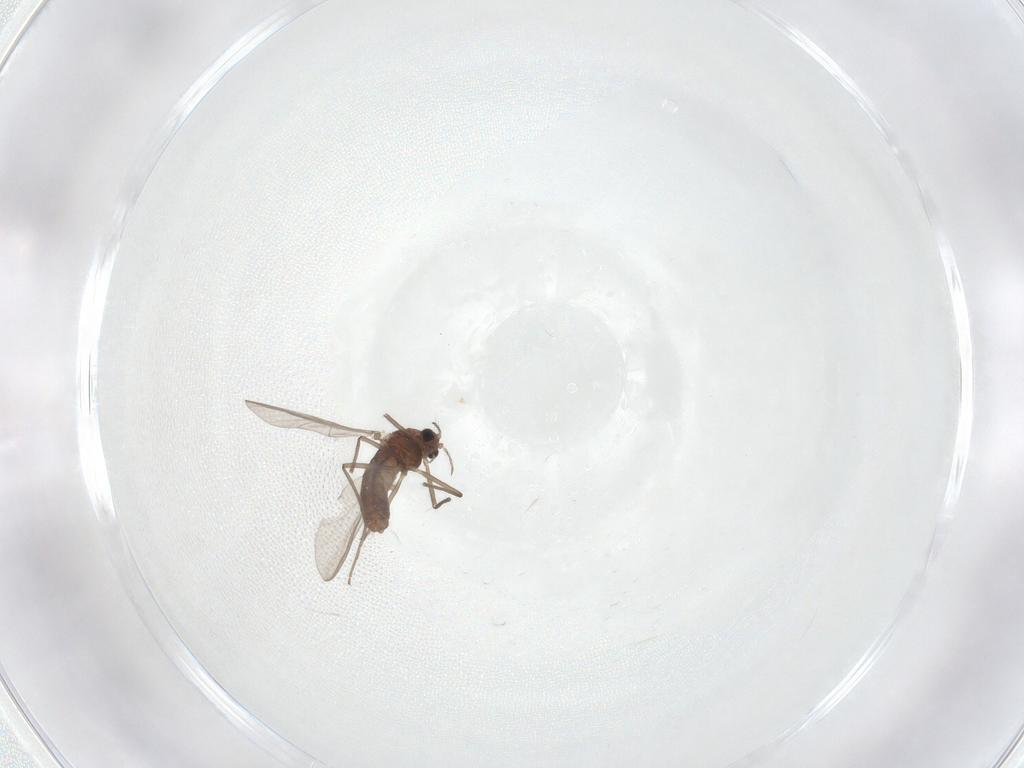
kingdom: Animalia
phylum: Arthropoda
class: Insecta
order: Diptera
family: Chironomidae
